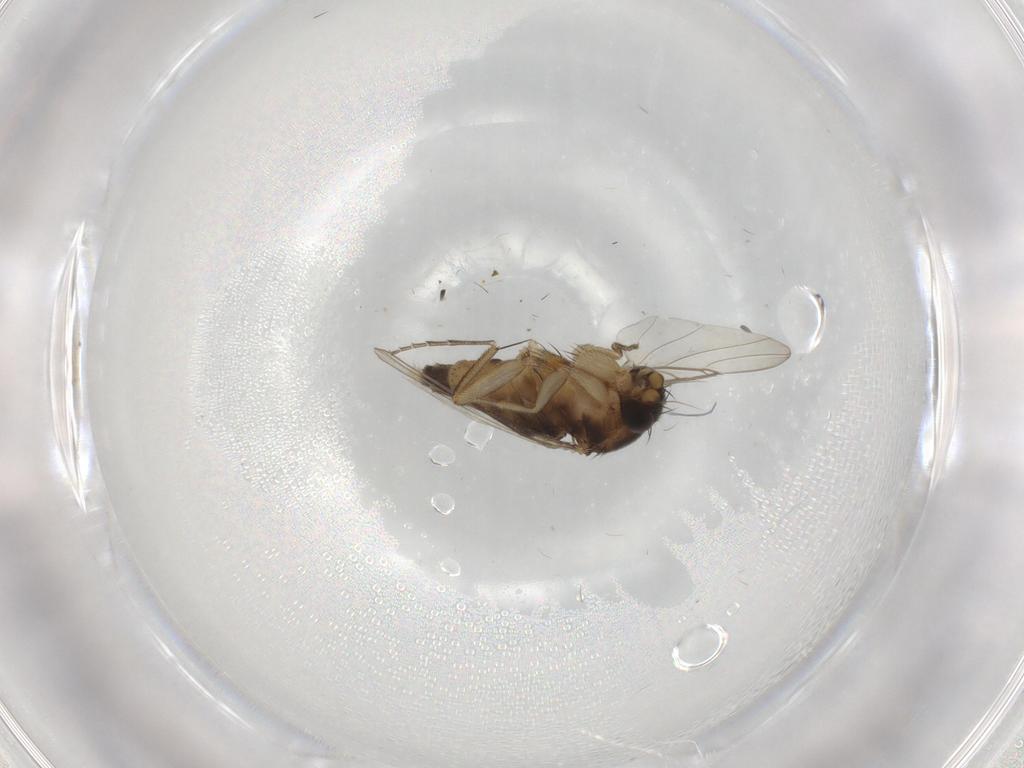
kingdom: Animalia
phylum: Arthropoda
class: Insecta
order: Diptera
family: Phoridae
